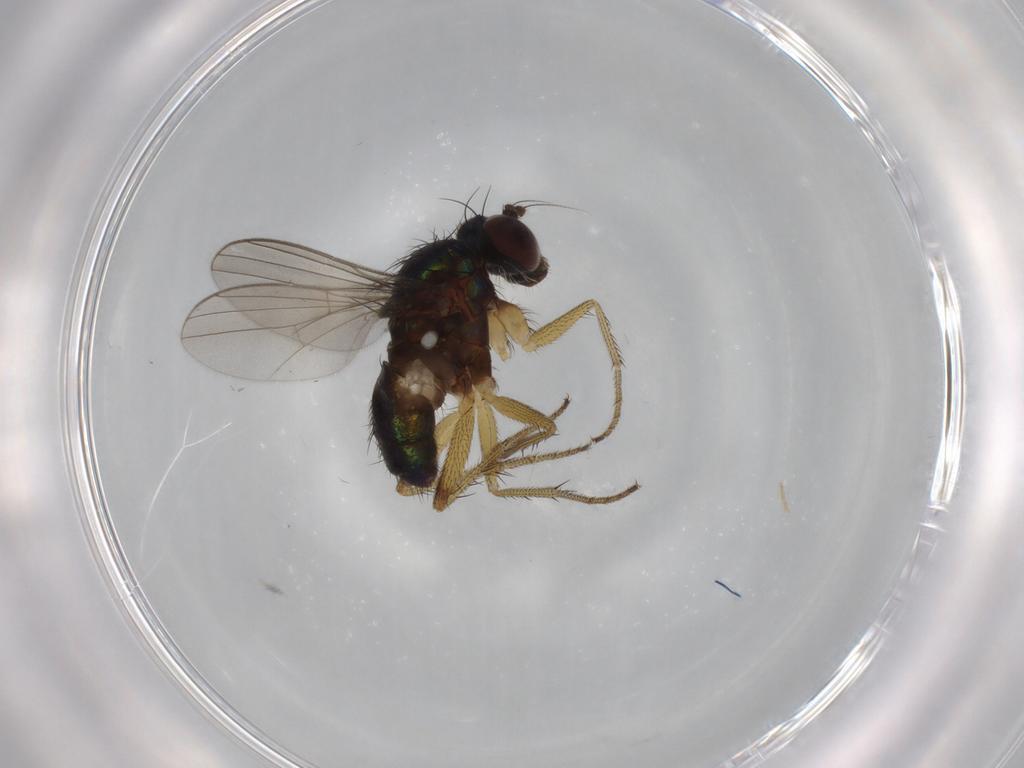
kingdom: Animalia
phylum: Arthropoda
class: Insecta
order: Diptera
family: Dolichopodidae
